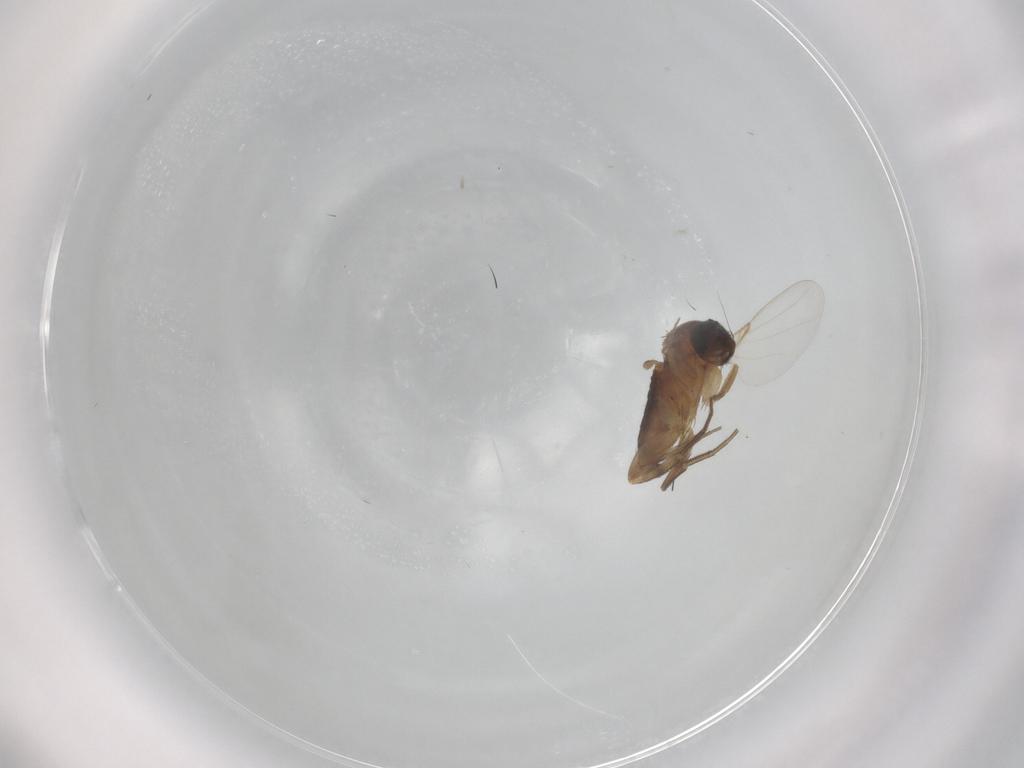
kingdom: Animalia
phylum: Arthropoda
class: Insecta
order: Diptera
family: Phoridae
